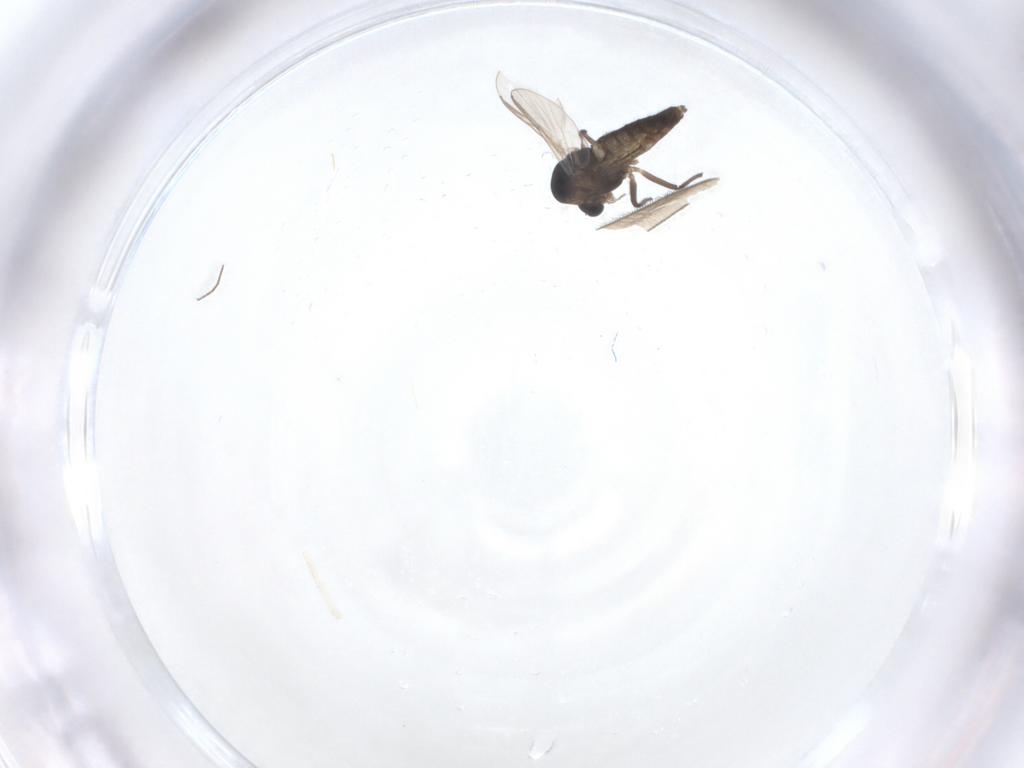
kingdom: Animalia
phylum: Arthropoda
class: Insecta
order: Diptera
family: Chironomidae
